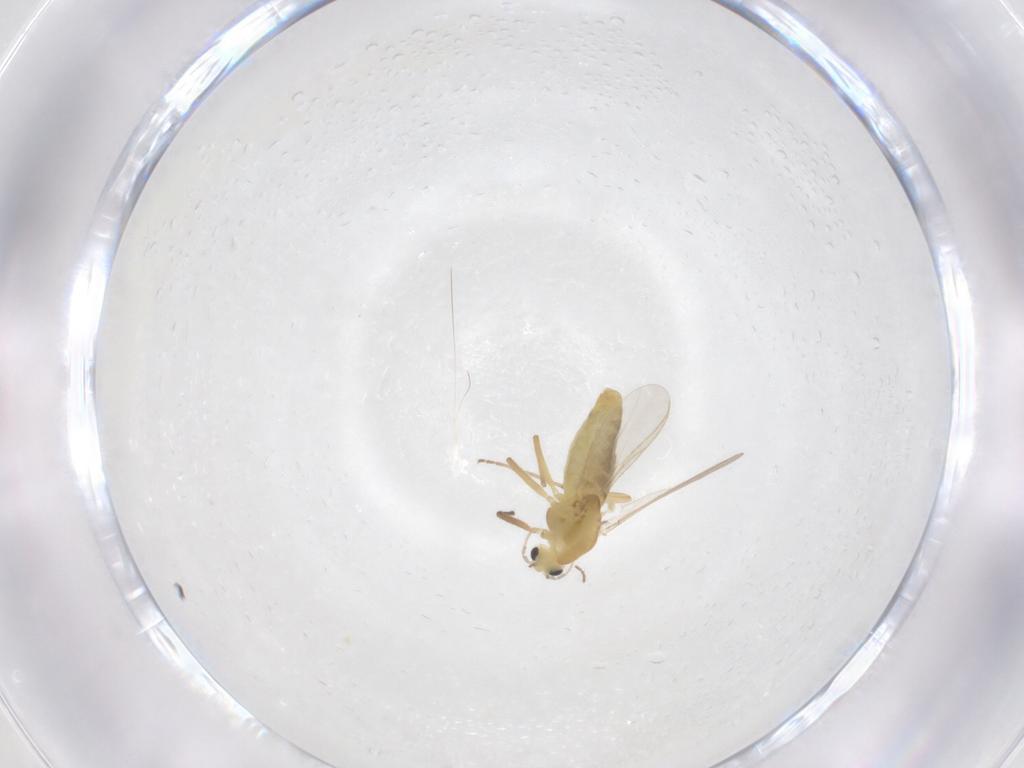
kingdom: Animalia
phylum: Arthropoda
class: Insecta
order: Diptera
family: Chironomidae
